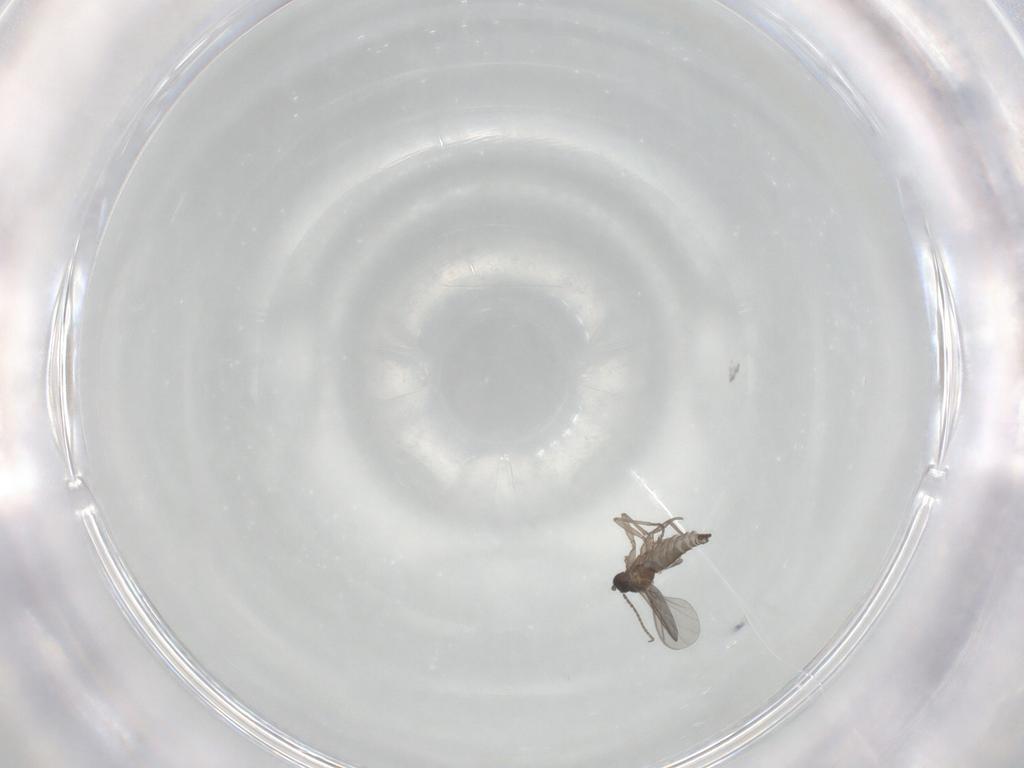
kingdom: Animalia
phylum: Arthropoda
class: Insecta
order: Diptera
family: Sciaridae
